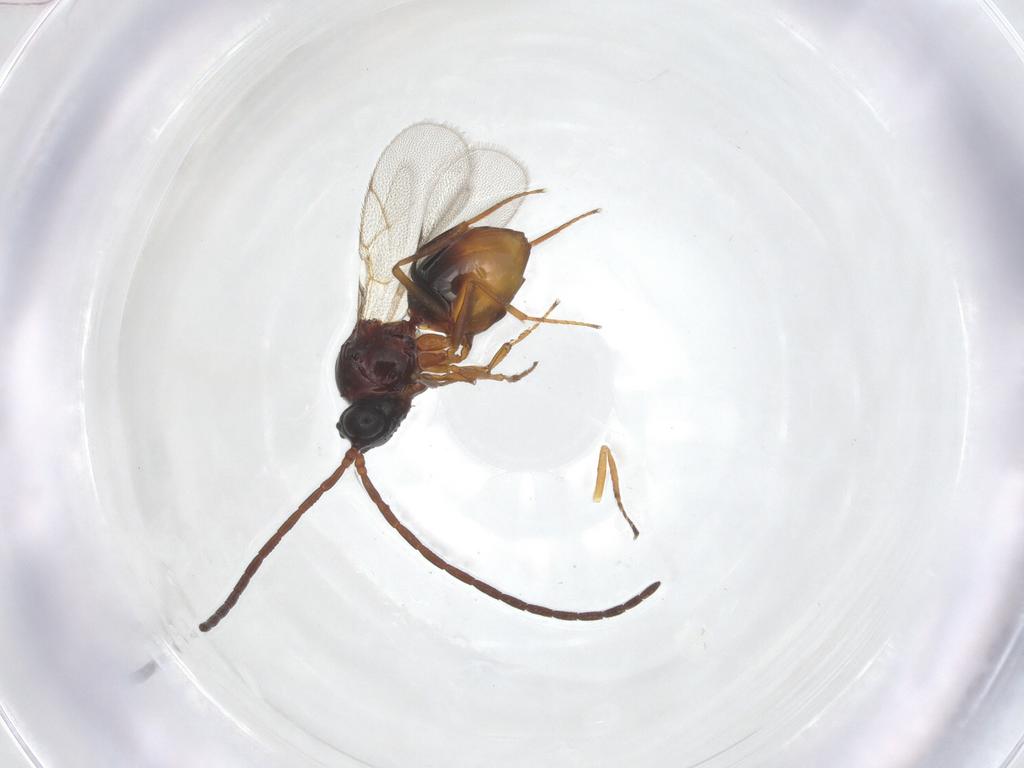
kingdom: Animalia
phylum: Arthropoda
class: Insecta
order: Hymenoptera
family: Figitidae
